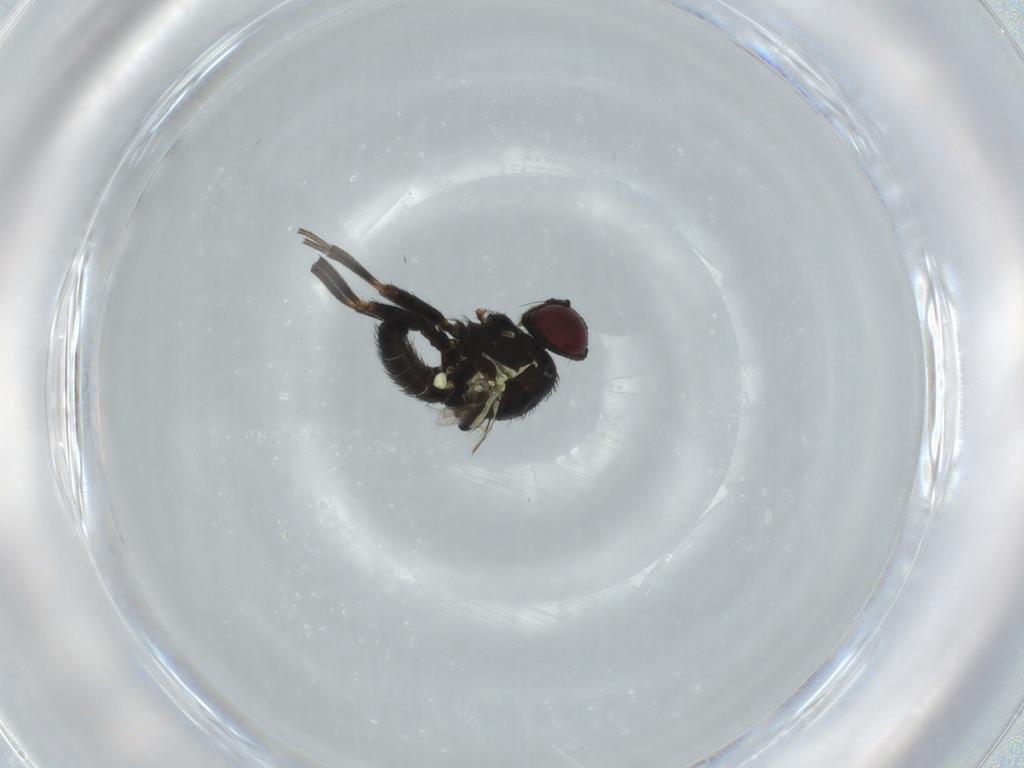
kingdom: Animalia
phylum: Arthropoda
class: Insecta
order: Diptera
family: Agromyzidae
